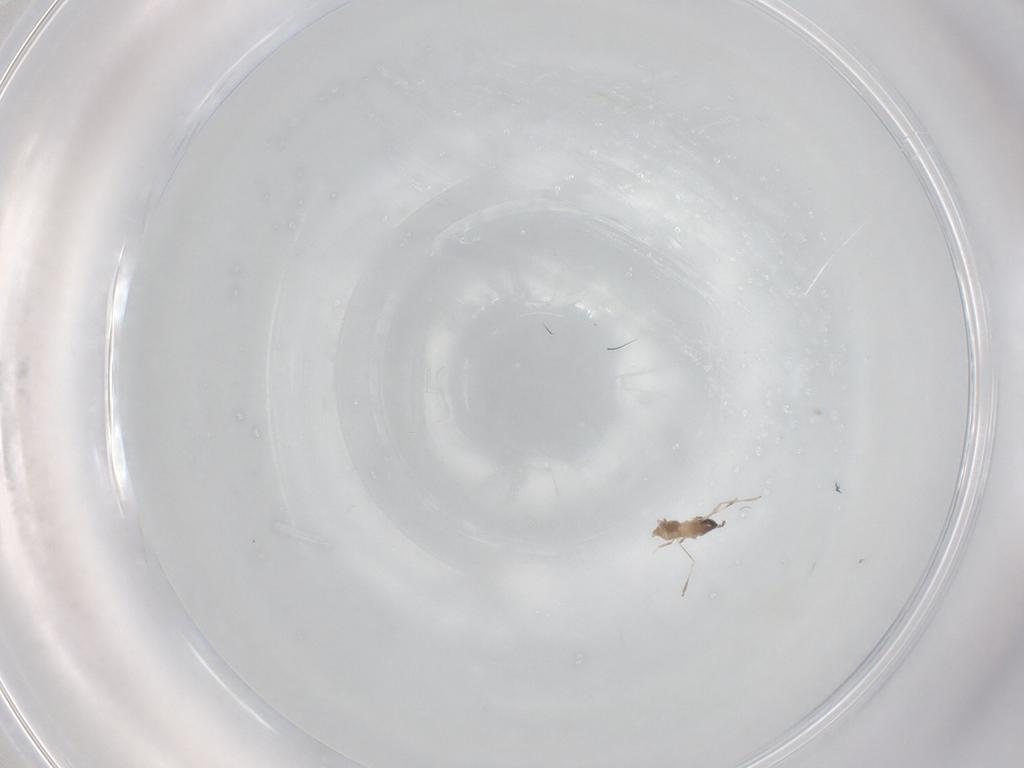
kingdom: Animalia
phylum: Arthropoda
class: Insecta
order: Diptera
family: Cecidomyiidae
